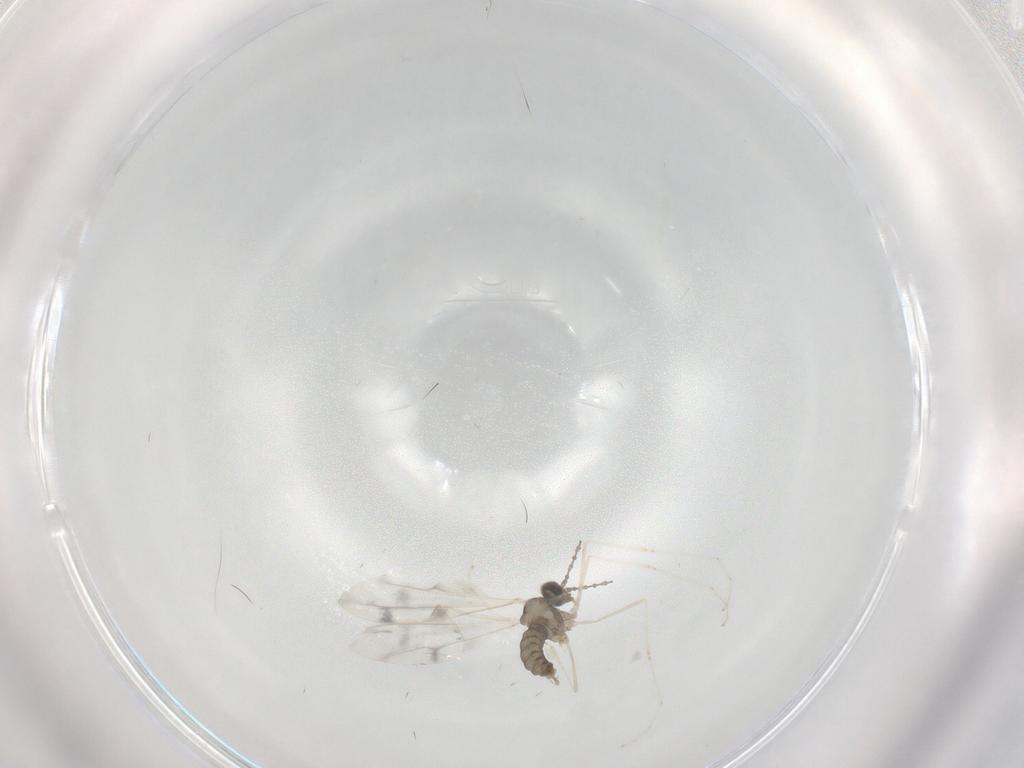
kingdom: Animalia
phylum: Arthropoda
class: Insecta
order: Diptera
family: Cecidomyiidae
